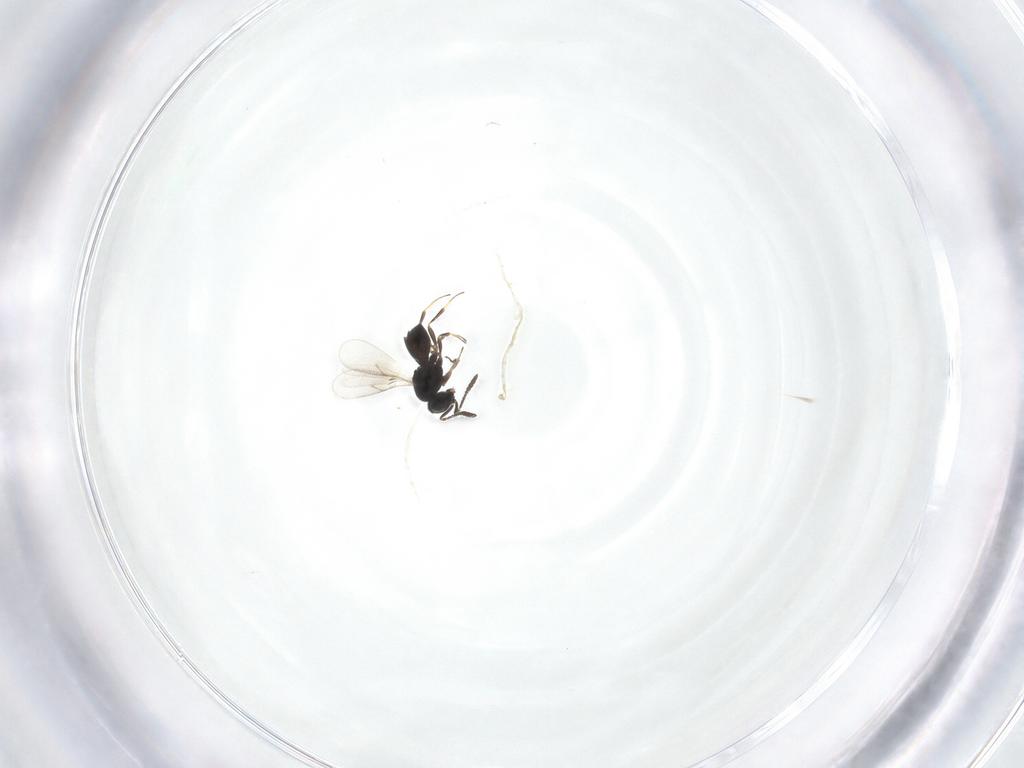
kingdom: Animalia
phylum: Arthropoda
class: Insecta
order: Hymenoptera
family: Scelionidae
